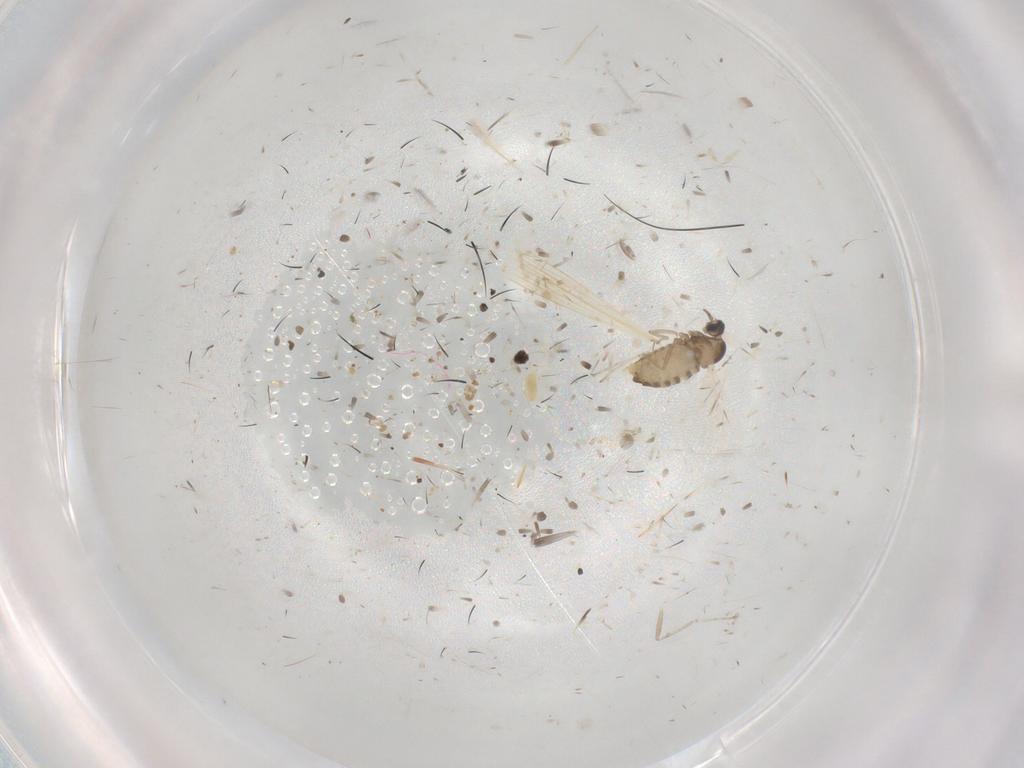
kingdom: Animalia
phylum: Arthropoda
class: Insecta
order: Diptera
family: Cecidomyiidae
